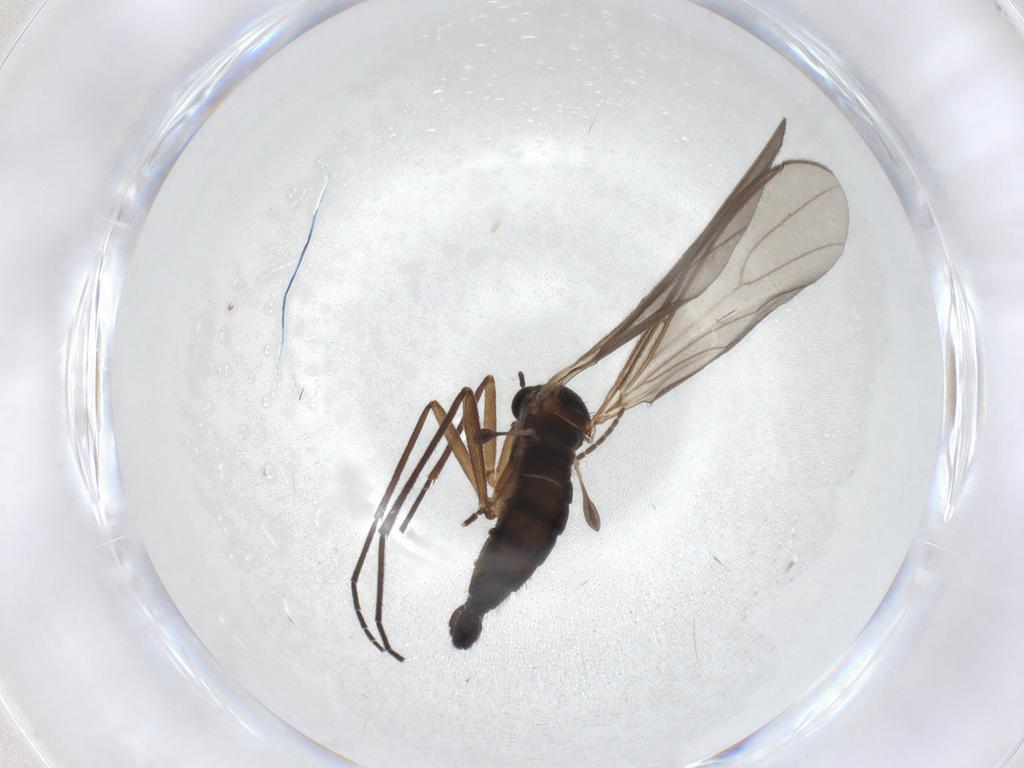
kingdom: Animalia
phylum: Arthropoda
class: Insecta
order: Diptera
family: Sciaridae
